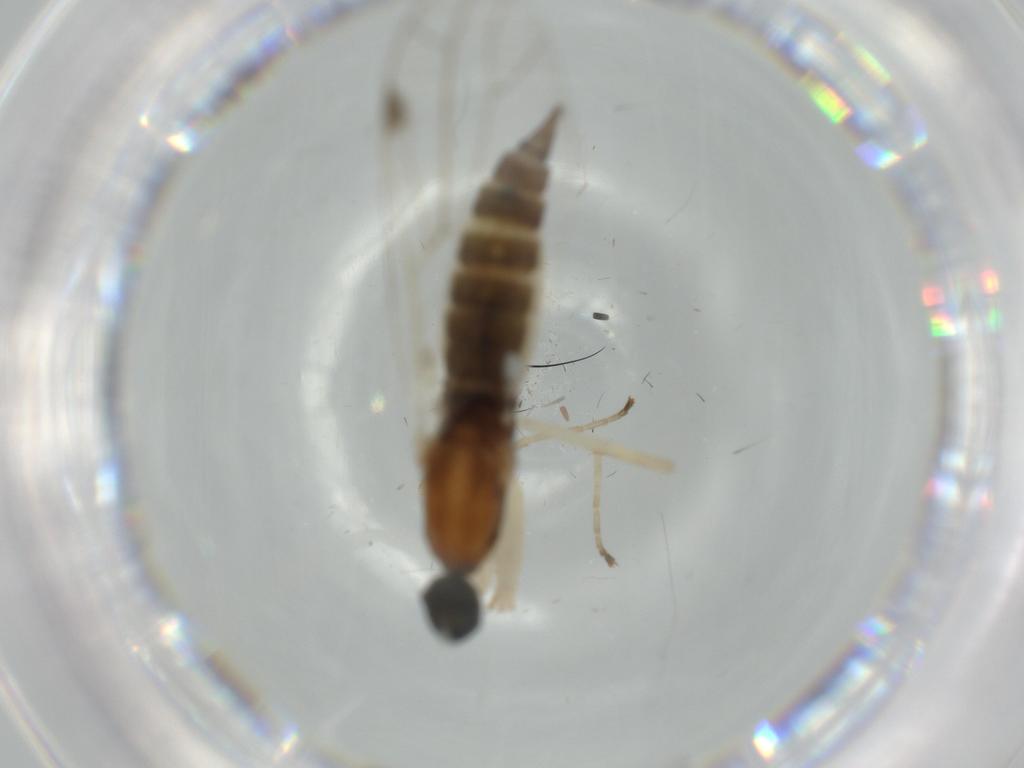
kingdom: Animalia
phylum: Arthropoda
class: Insecta
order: Diptera
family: Empididae
